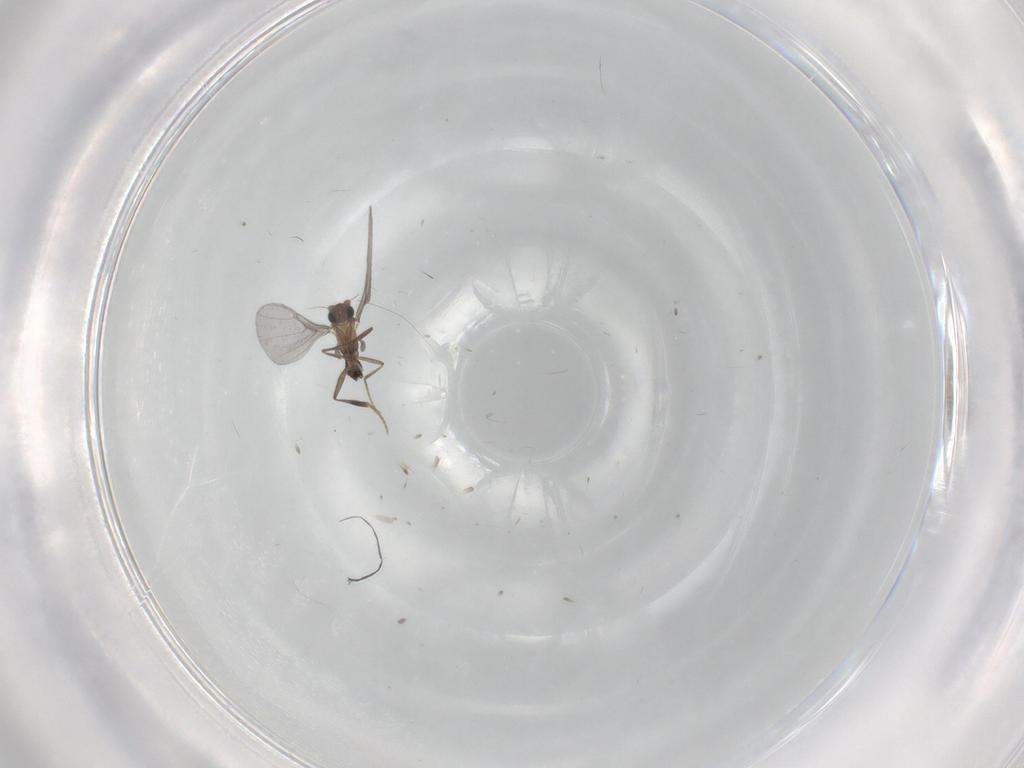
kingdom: Animalia
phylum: Arthropoda
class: Insecta
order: Diptera
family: Phoridae
